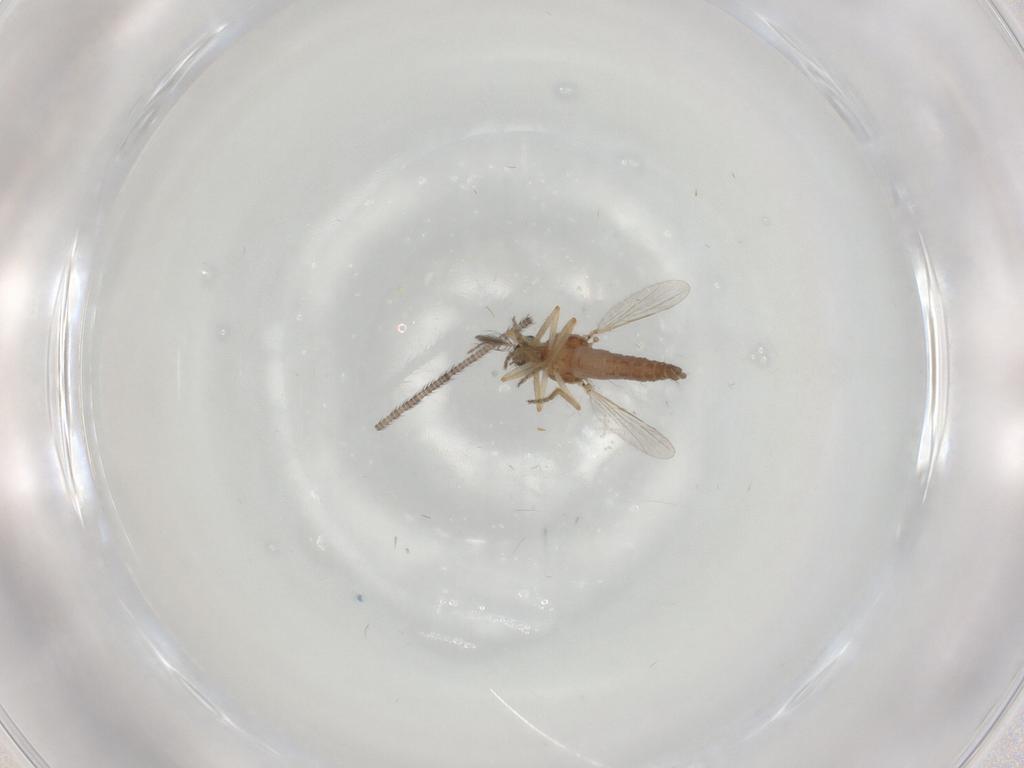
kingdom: Animalia
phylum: Arthropoda
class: Insecta
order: Diptera
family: Ceratopogonidae
